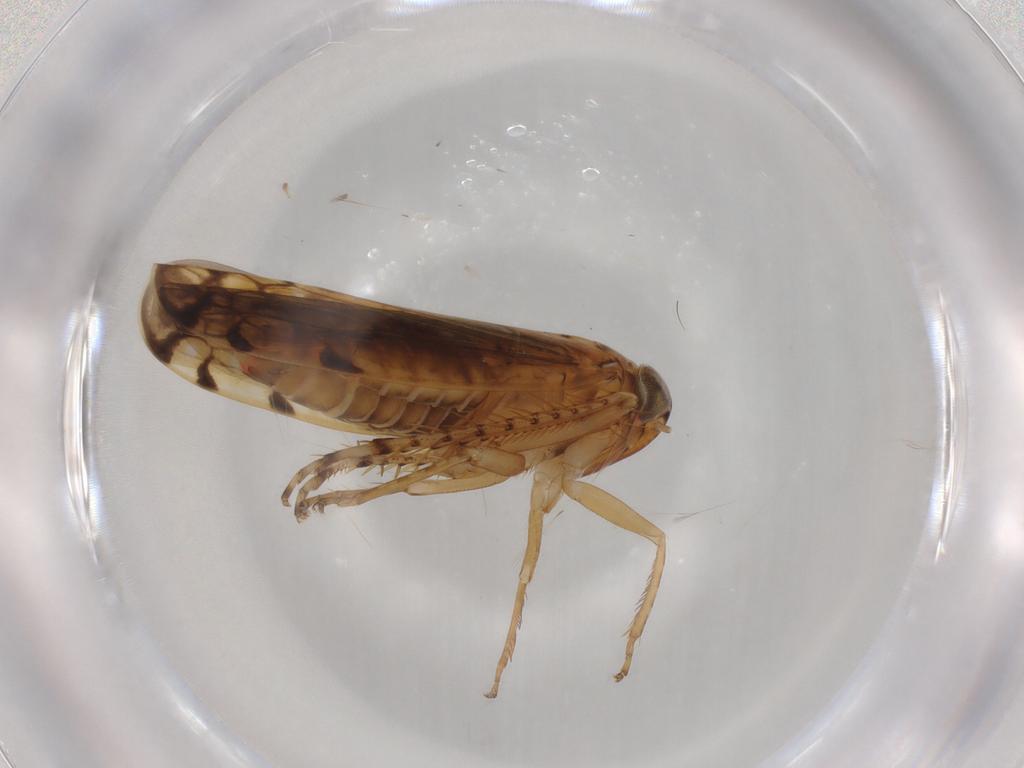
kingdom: Animalia
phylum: Arthropoda
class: Insecta
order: Hemiptera
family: Cicadellidae
